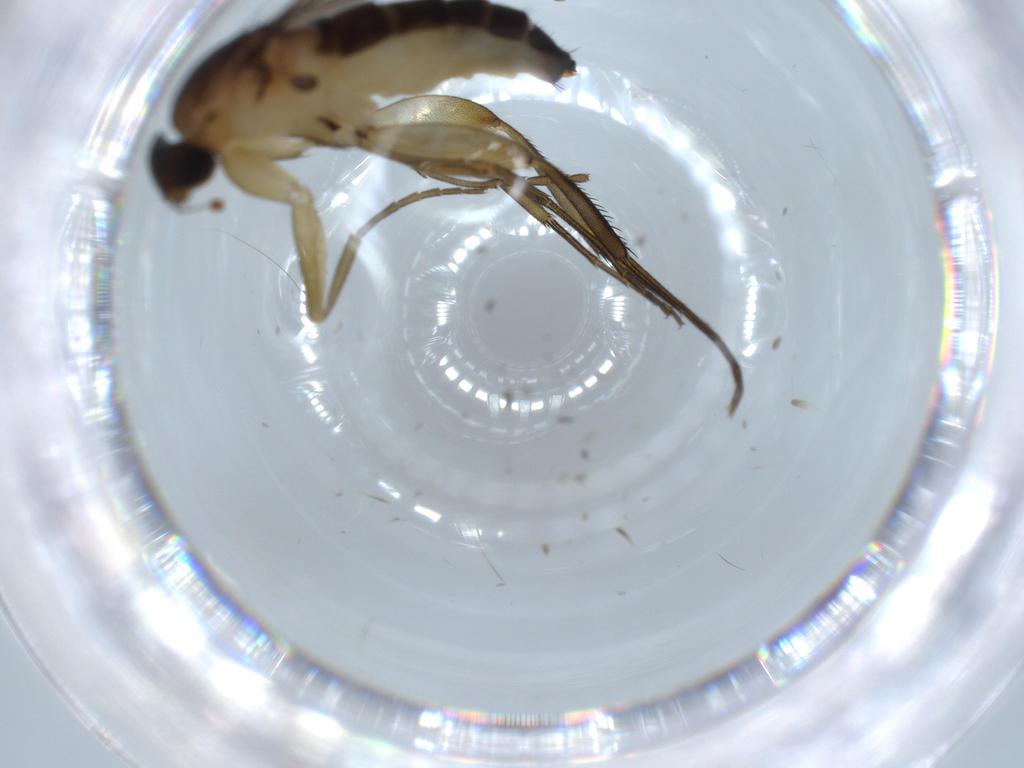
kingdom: Animalia
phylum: Arthropoda
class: Insecta
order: Diptera
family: Phoridae
